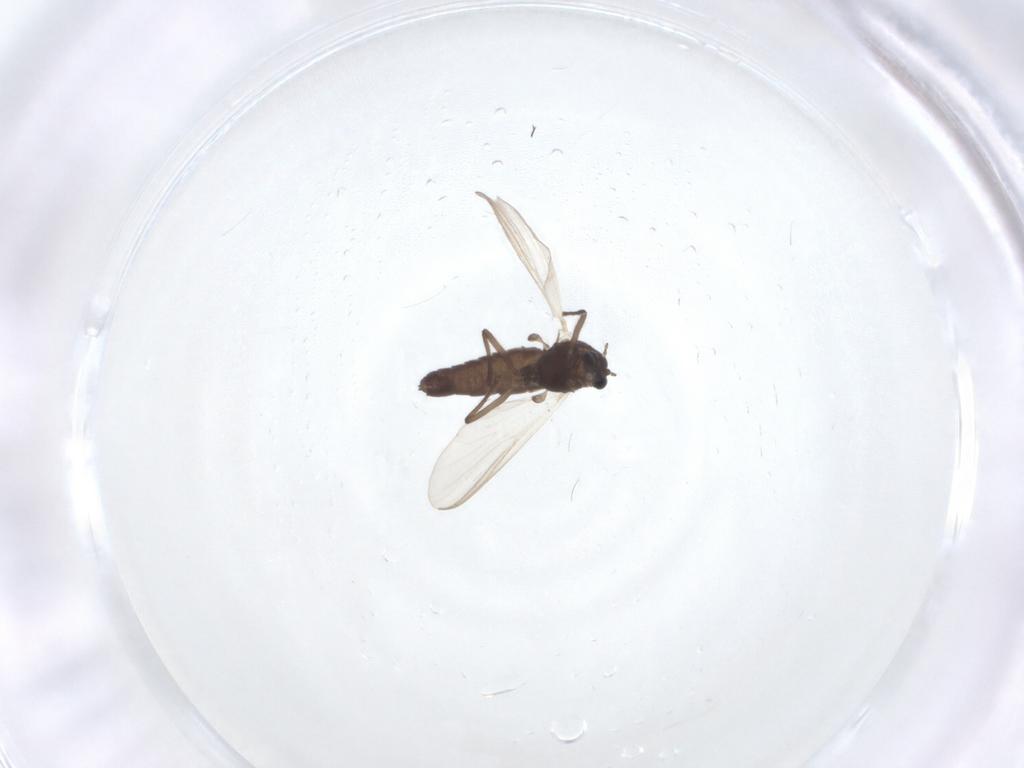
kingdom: Animalia
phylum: Arthropoda
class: Insecta
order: Diptera
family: Chironomidae
